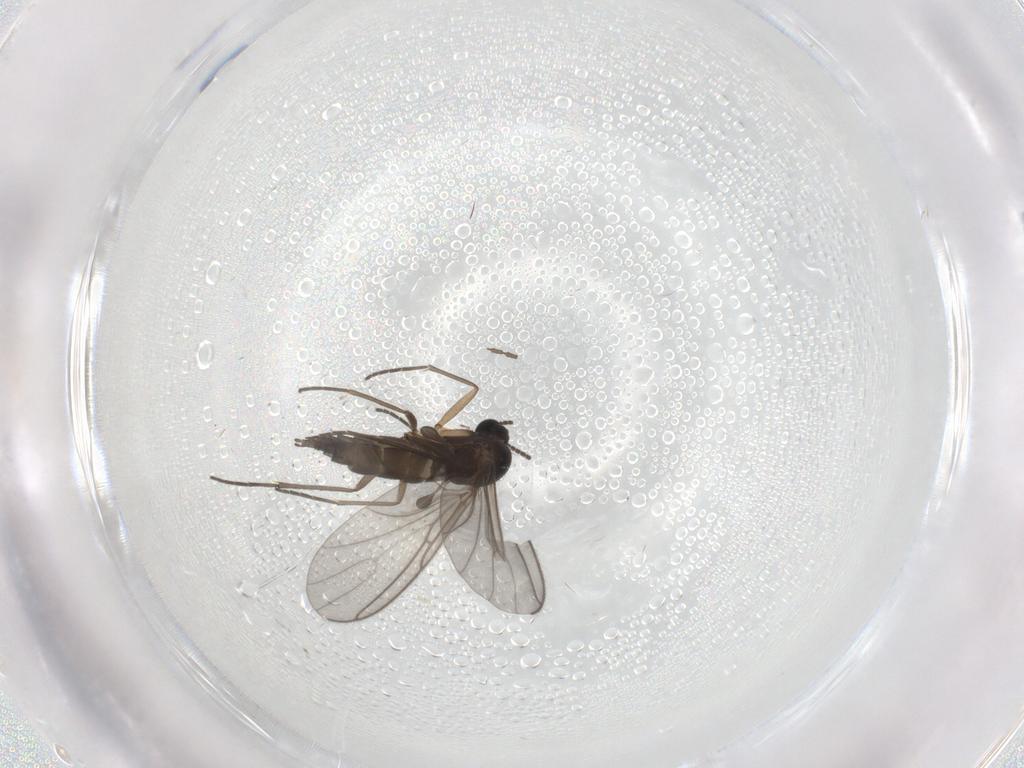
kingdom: Animalia
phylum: Arthropoda
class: Insecta
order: Diptera
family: Sciaridae
